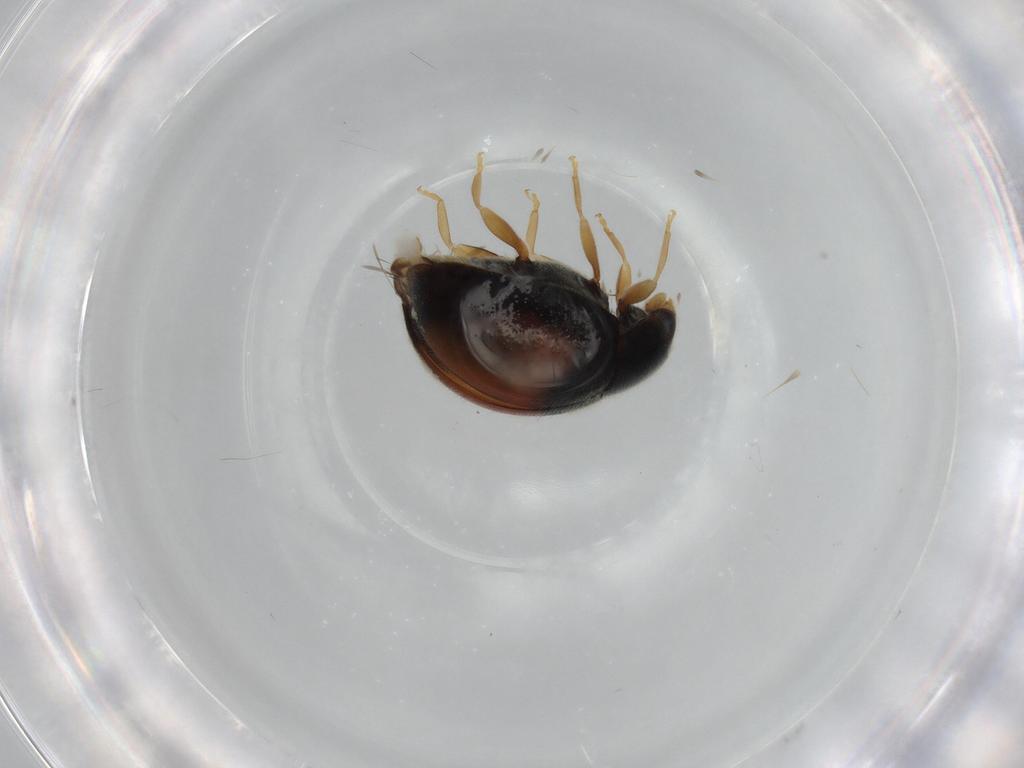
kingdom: Animalia
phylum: Arthropoda
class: Insecta
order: Coleoptera
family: Coccinellidae
